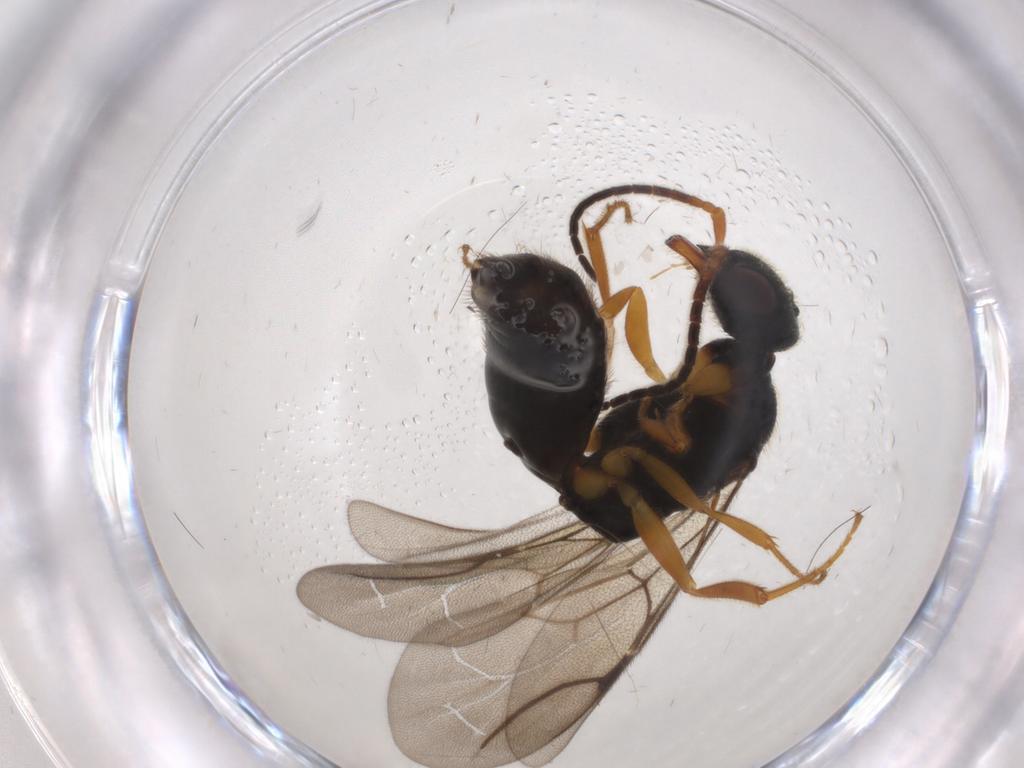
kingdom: Animalia
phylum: Arthropoda
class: Insecta
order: Hymenoptera
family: Bethylidae
